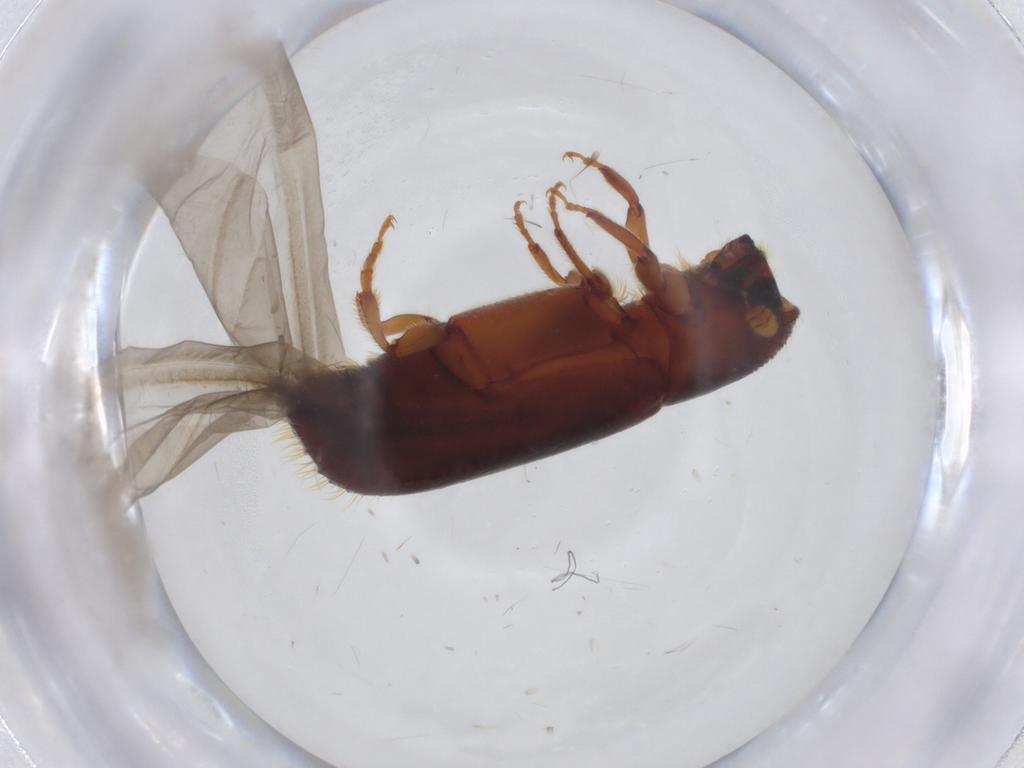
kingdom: Animalia
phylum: Arthropoda
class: Insecta
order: Coleoptera
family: Curculionidae
